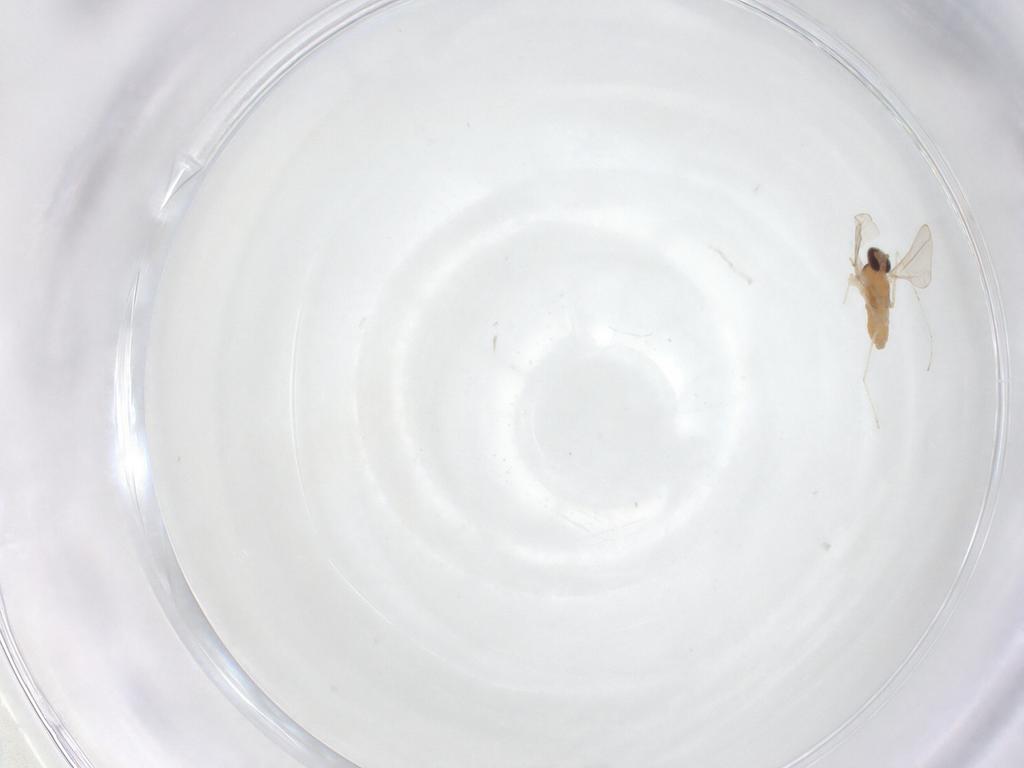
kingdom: Animalia
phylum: Arthropoda
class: Insecta
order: Diptera
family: Cecidomyiidae
